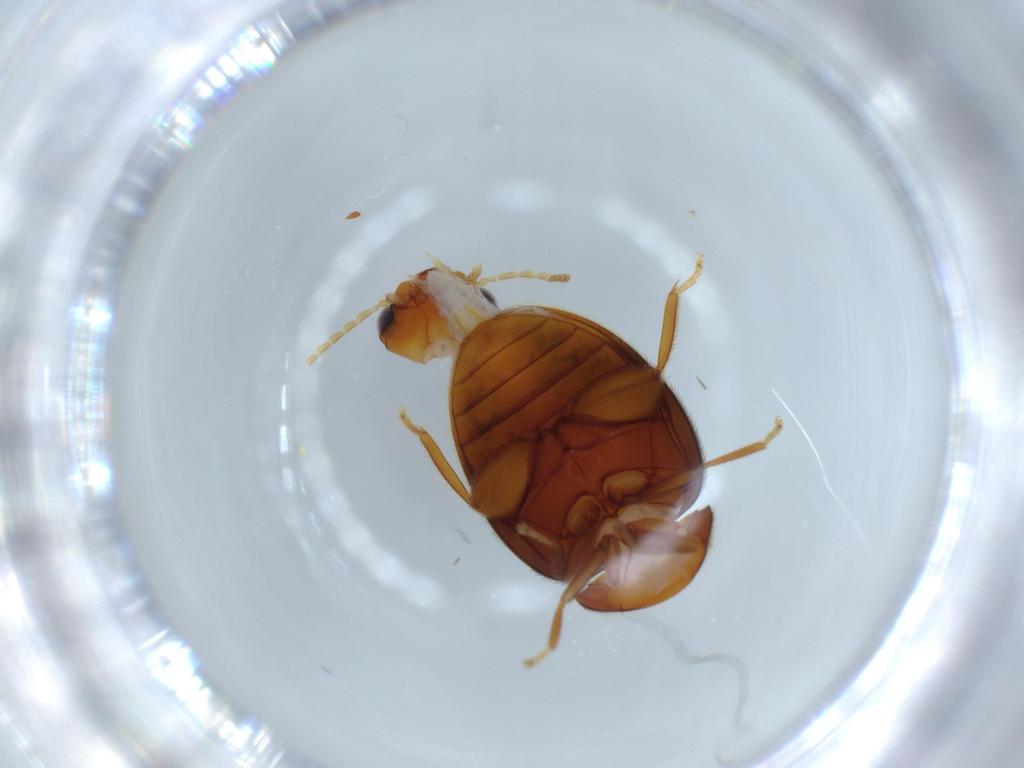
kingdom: Animalia
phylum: Arthropoda
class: Insecta
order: Coleoptera
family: Scirtidae
